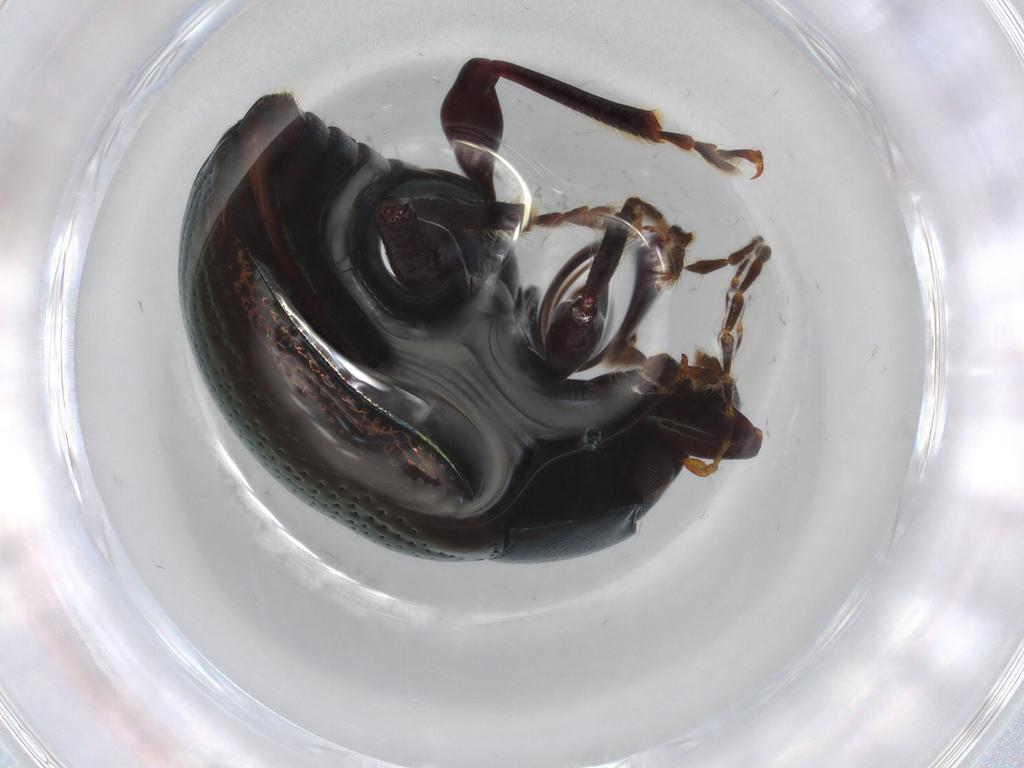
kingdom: Animalia
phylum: Arthropoda
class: Insecta
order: Coleoptera
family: Chrysomelidae
